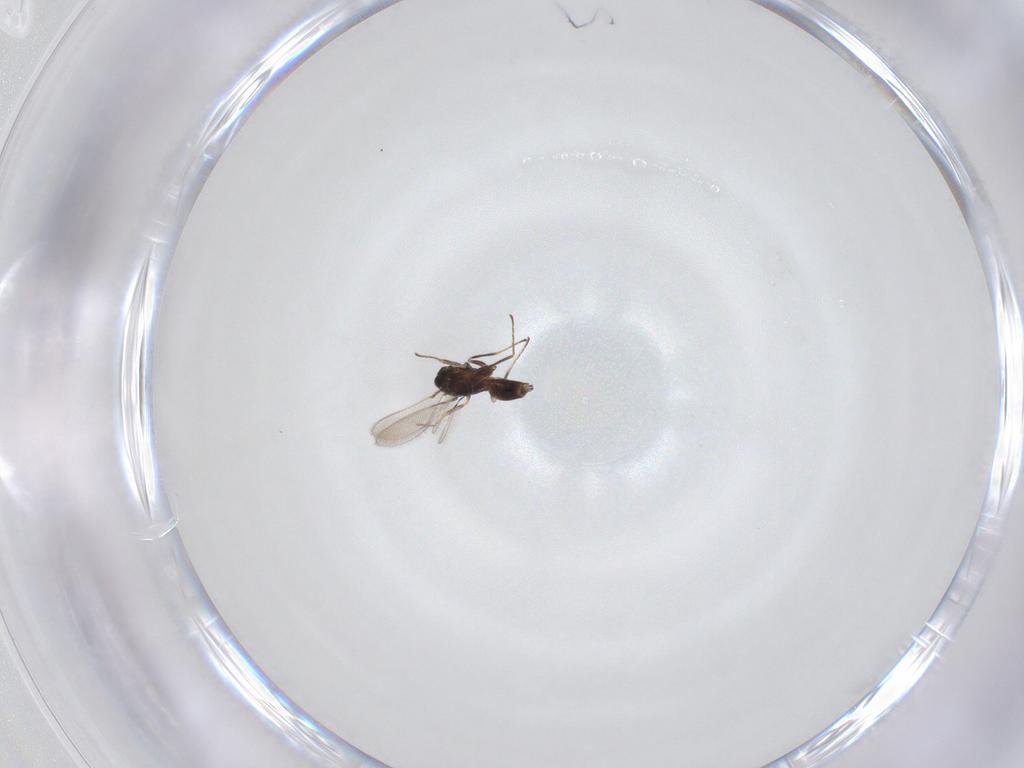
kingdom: Animalia
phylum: Arthropoda
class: Insecta
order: Hymenoptera
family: Mymaridae
